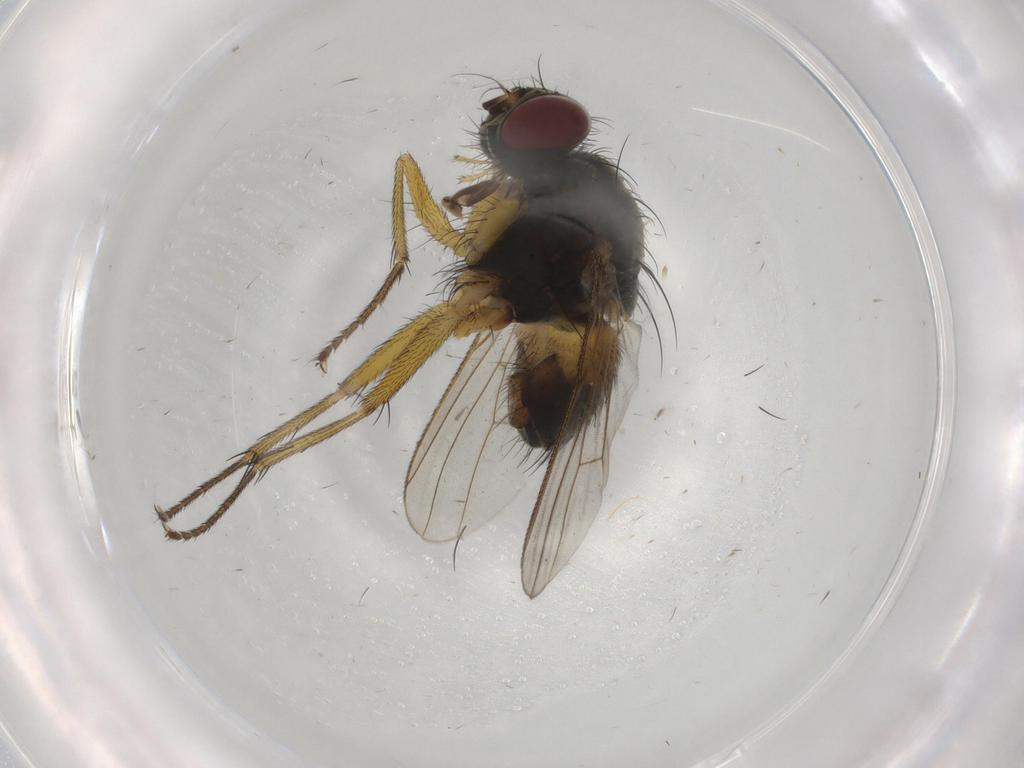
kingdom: Animalia
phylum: Arthropoda
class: Insecta
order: Diptera
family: Muscidae
